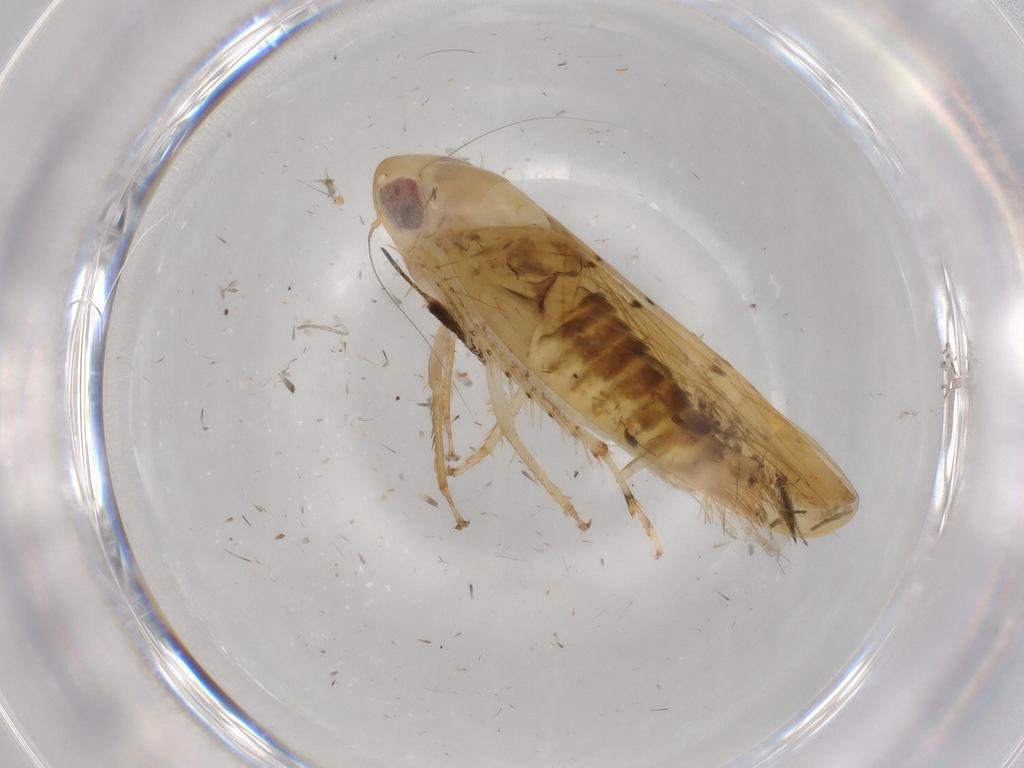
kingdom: Animalia
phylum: Arthropoda
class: Insecta
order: Hemiptera
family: Cicadellidae
